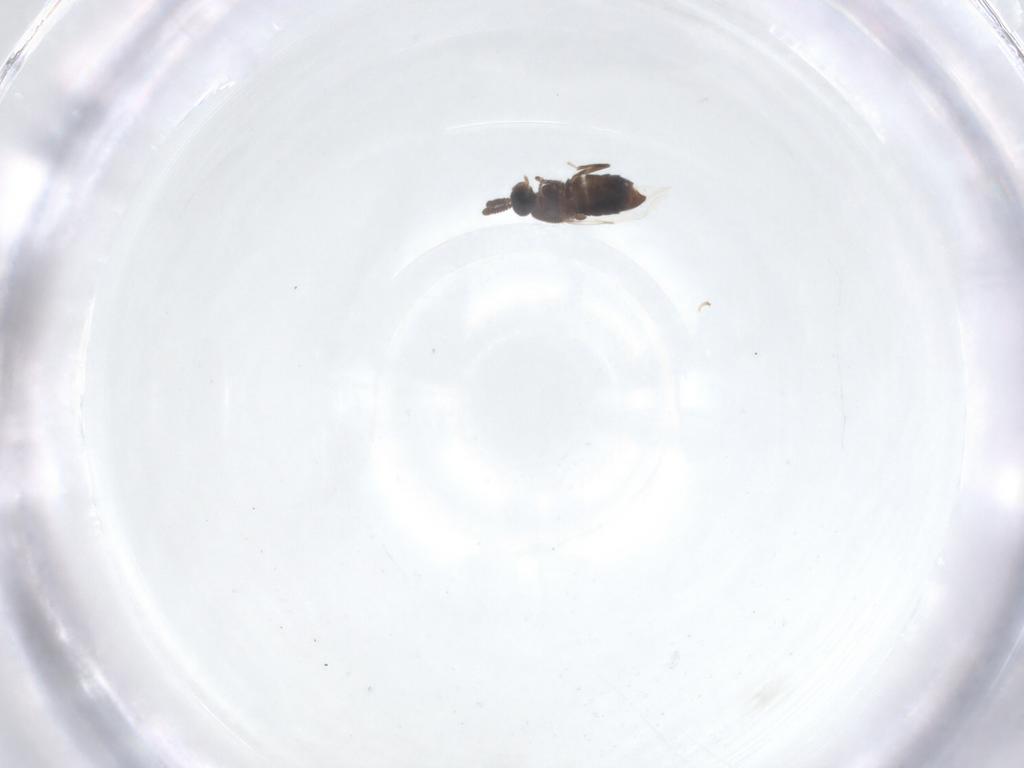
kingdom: Animalia
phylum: Arthropoda
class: Insecta
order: Diptera
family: Scatopsidae
